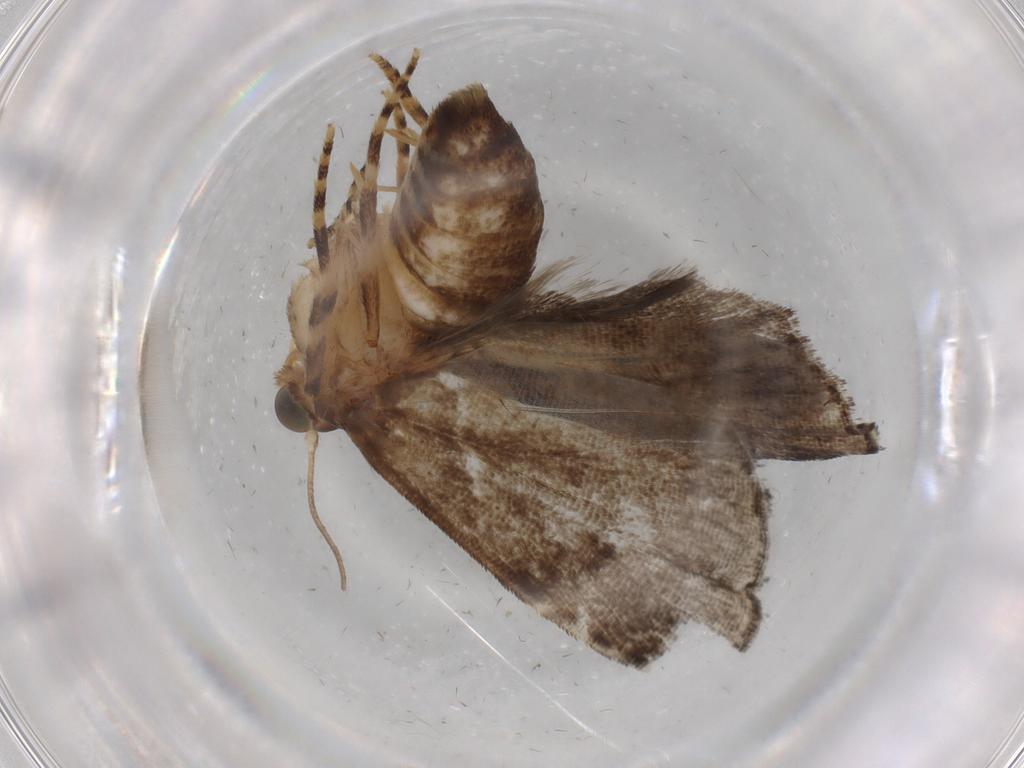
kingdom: Animalia
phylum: Arthropoda
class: Insecta
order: Lepidoptera
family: Immidae
